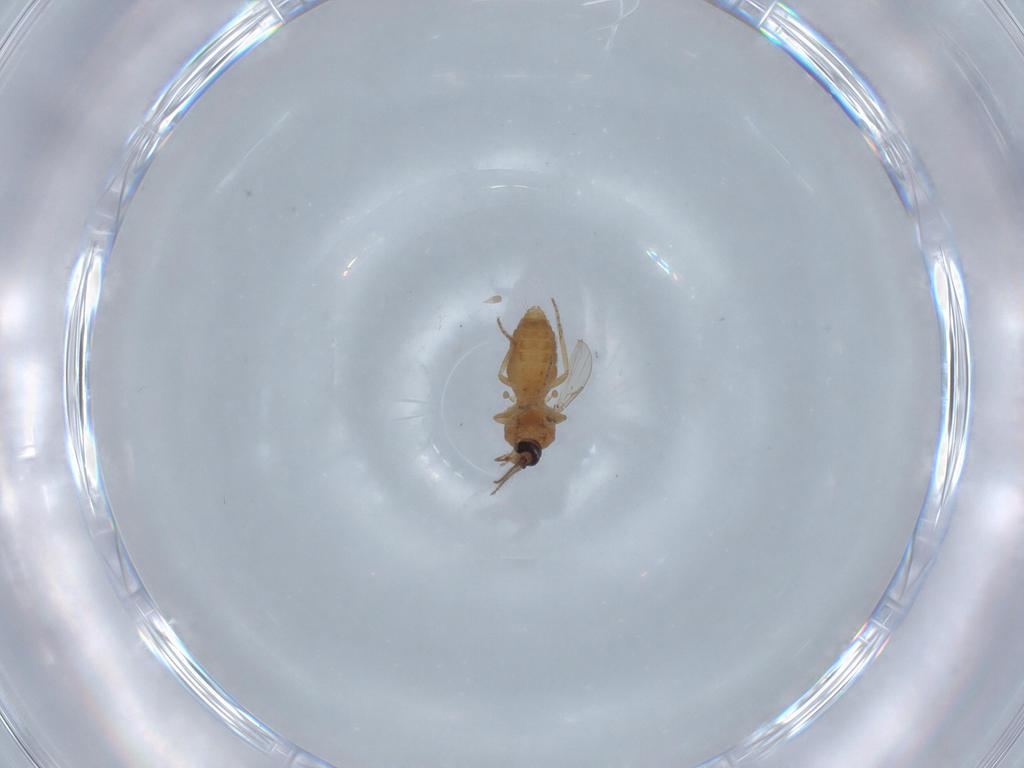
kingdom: Animalia
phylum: Arthropoda
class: Insecta
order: Diptera
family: Ceratopogonidae
